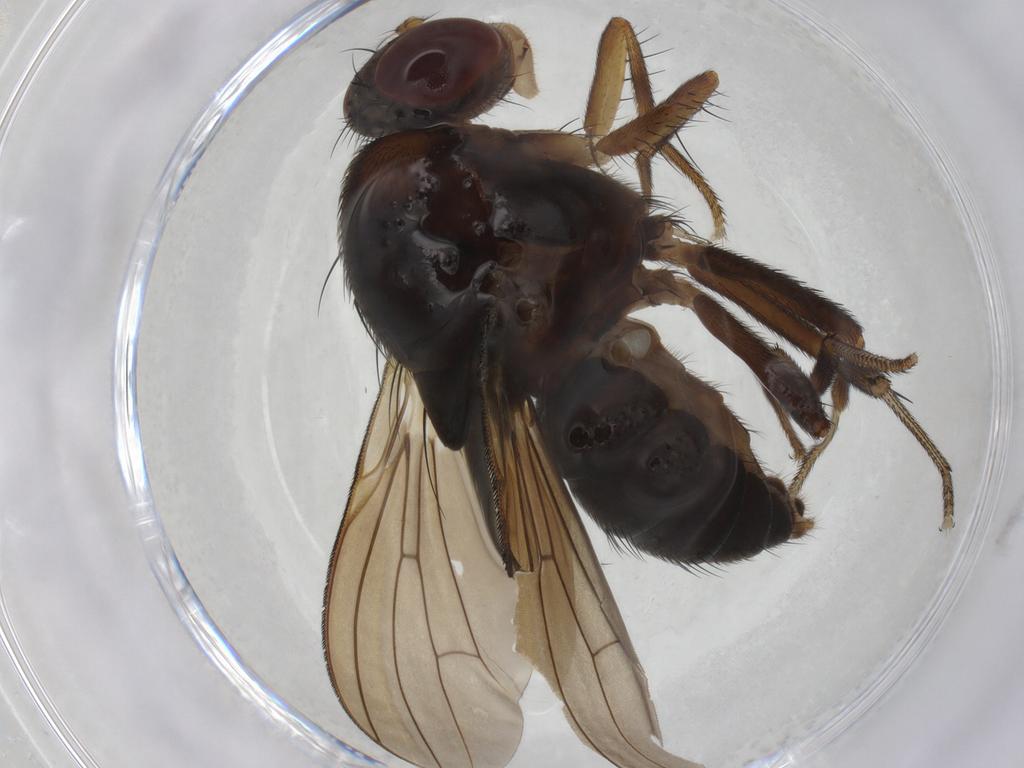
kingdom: Animalia
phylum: Arthropoda
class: Insecta
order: Diptera
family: Ceratopogonidae
